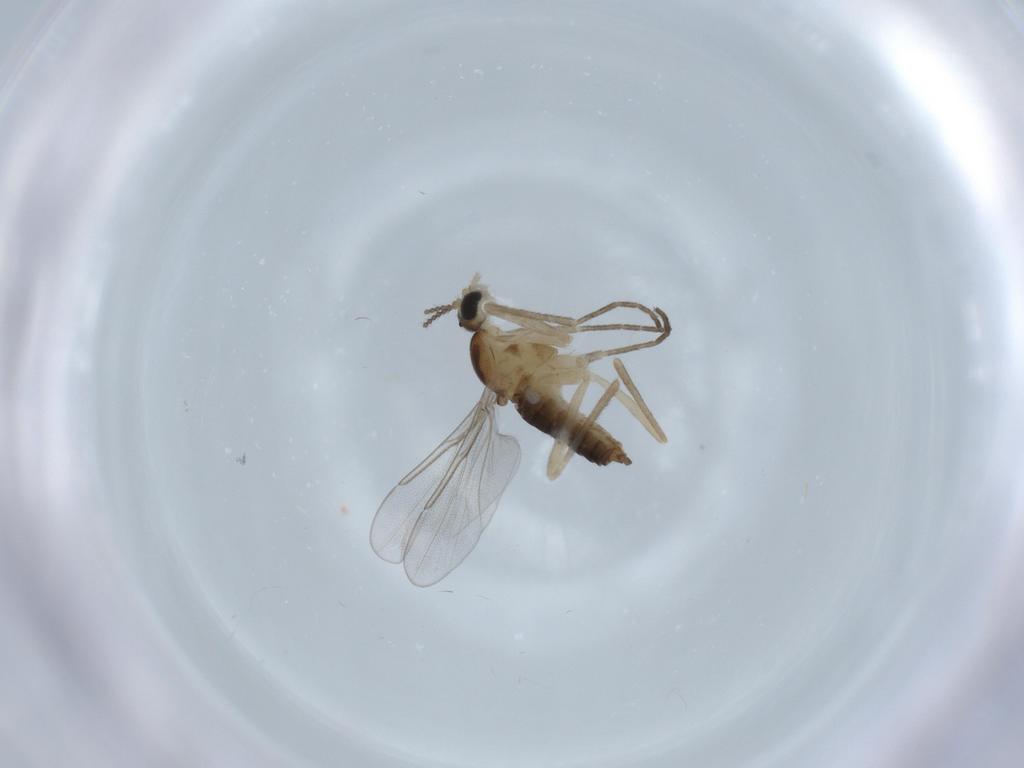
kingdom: Animalia
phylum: Arthropoda
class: Insecta
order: Diptera
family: Cecidomyiidae
